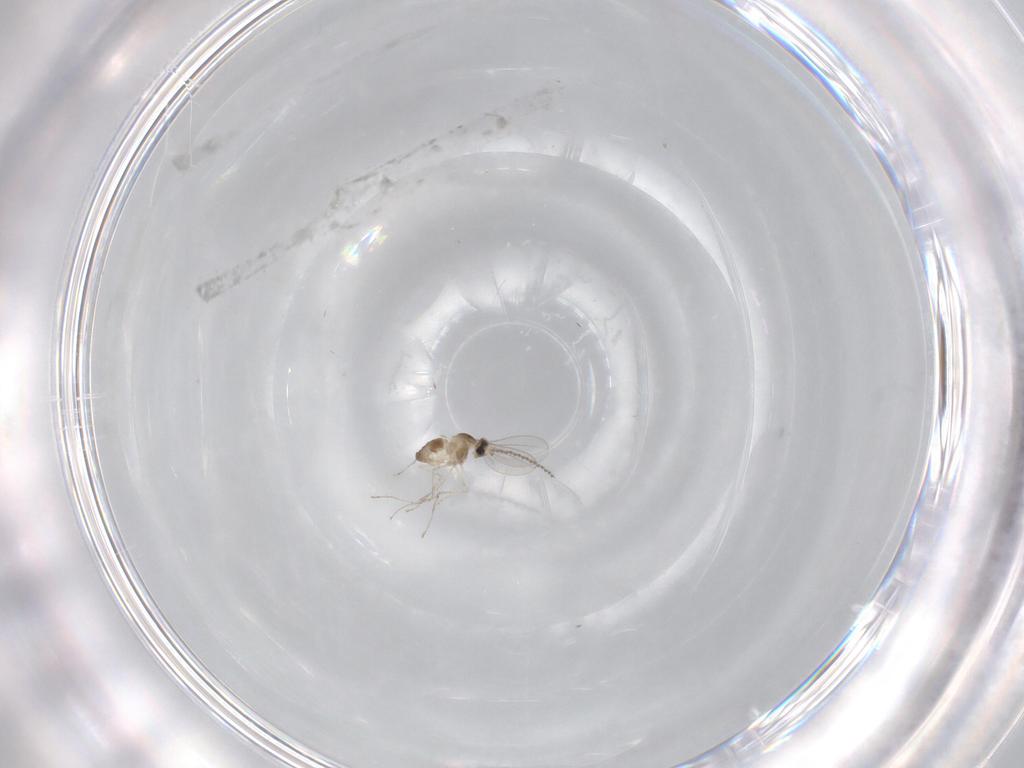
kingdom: Animalia
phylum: Arthropoda
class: Insecta
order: Diptera
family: Cecidomyiidae
